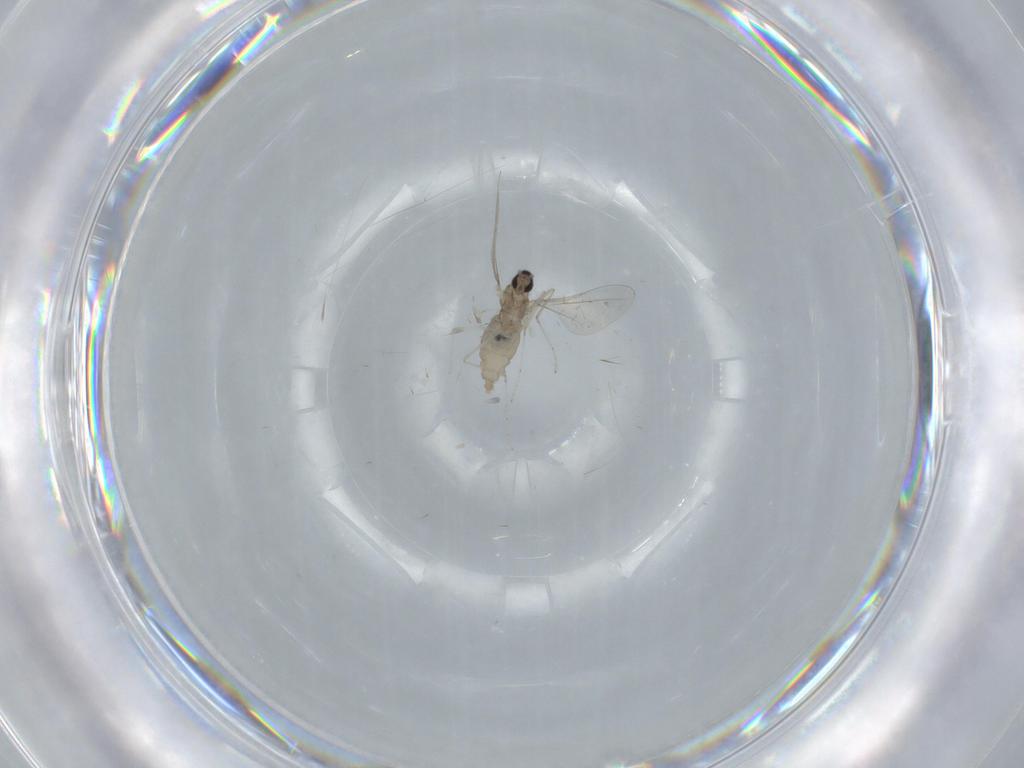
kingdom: Animalia
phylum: Arthropoda
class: Insecta
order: Diptera
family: Cecidomyiidae
